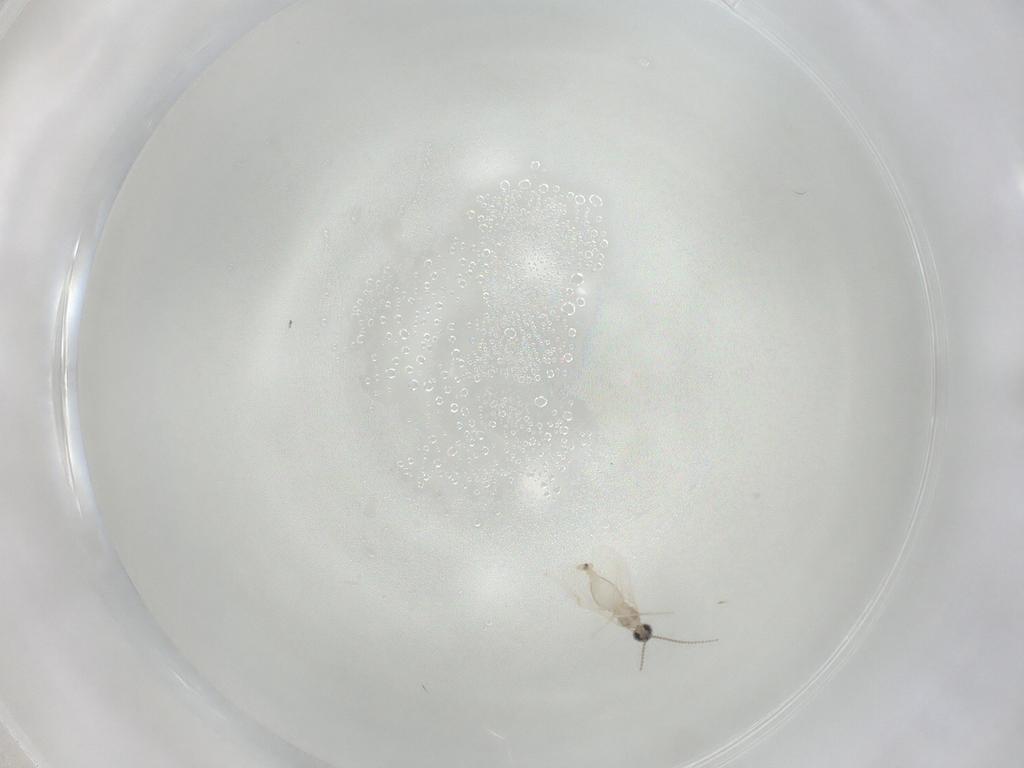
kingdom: Animalia
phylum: Arthropoda
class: Insecta
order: Diptera
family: Cecidomyiidae
